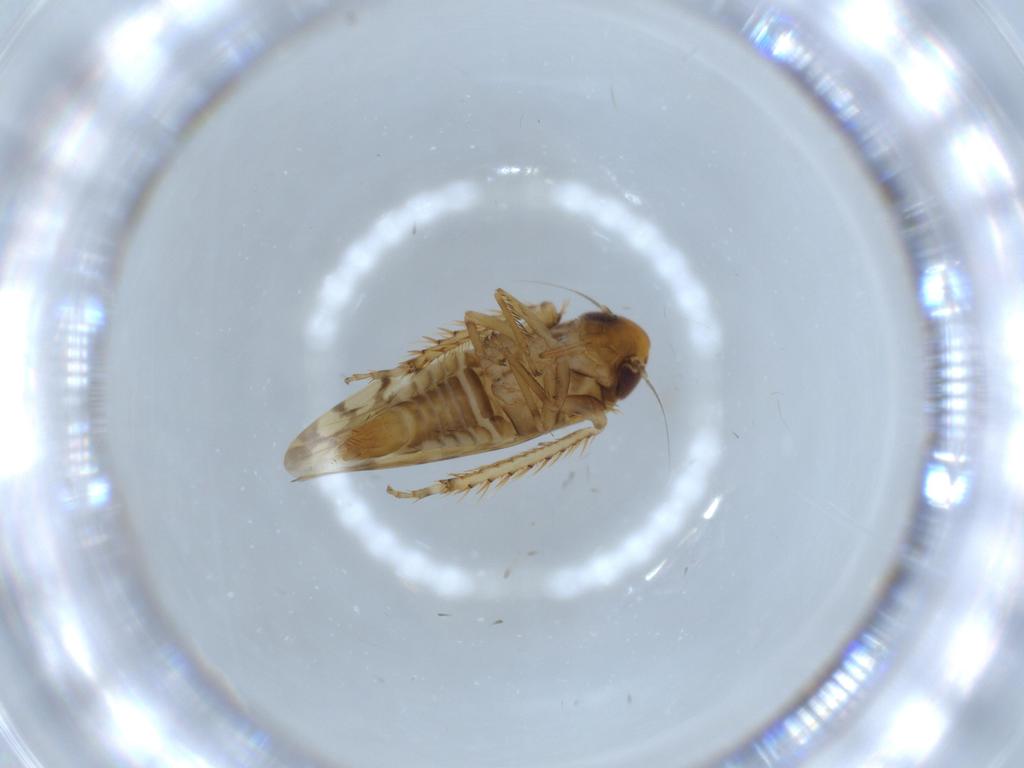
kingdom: Animalia
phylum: Arthropoda
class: Insecta
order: Hemiptera
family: Cicadellidae
